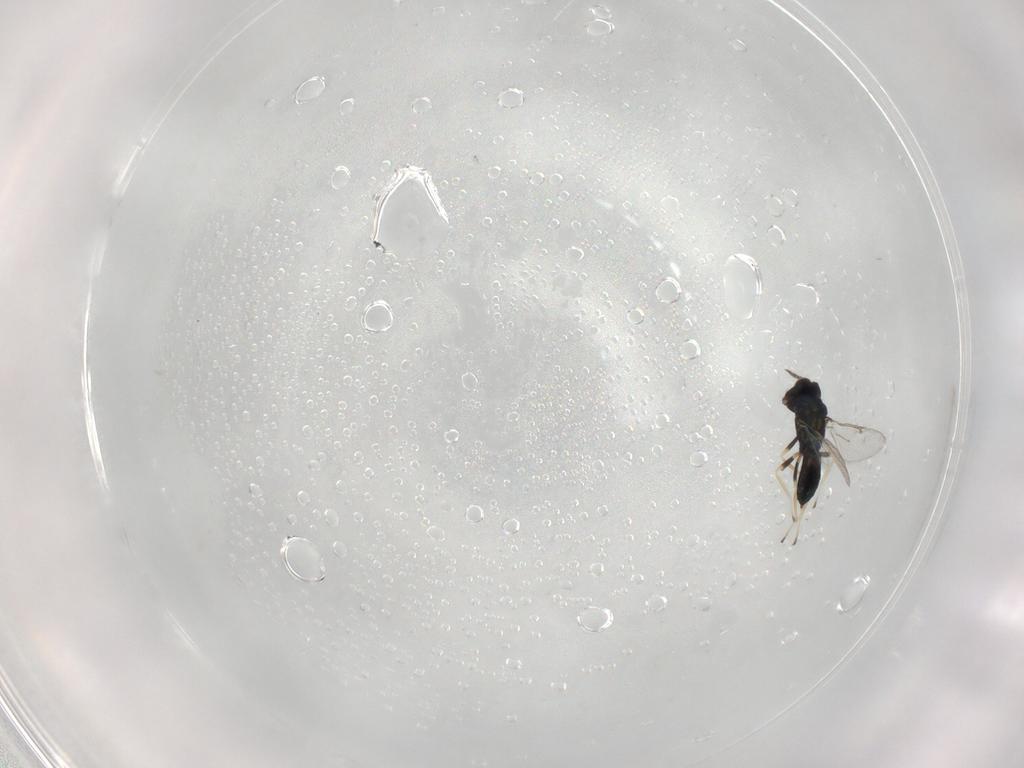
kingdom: Animalia
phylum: Arthropoda
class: Insecta
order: Hymenoptera
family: Eulophidae
